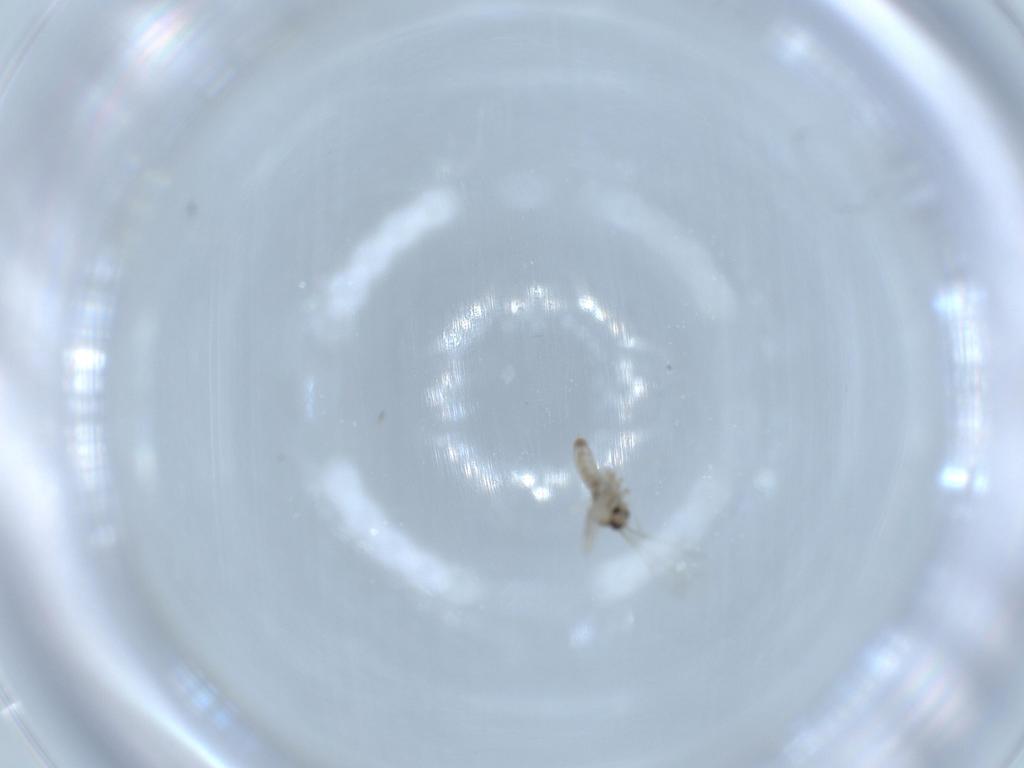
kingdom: Animalia
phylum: Arthropoda
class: Insecta
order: Diptera
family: Cecidomyiidae
